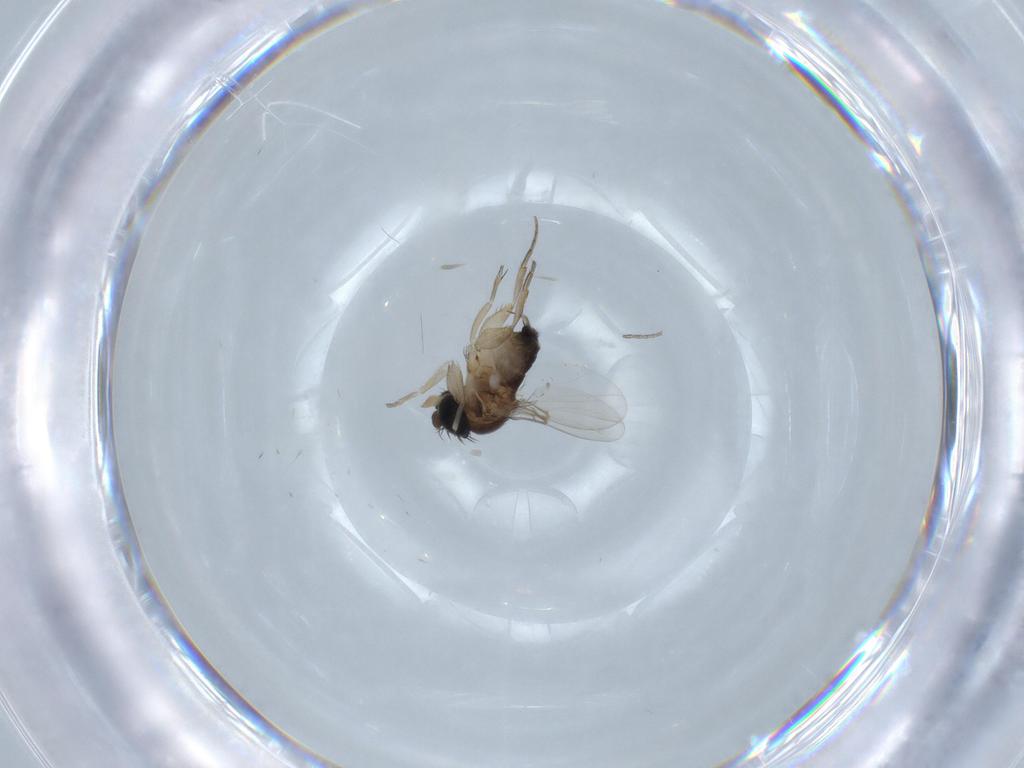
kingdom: Animalia
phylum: Arthropoda
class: Insecta
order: Diptera
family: Phoridae
